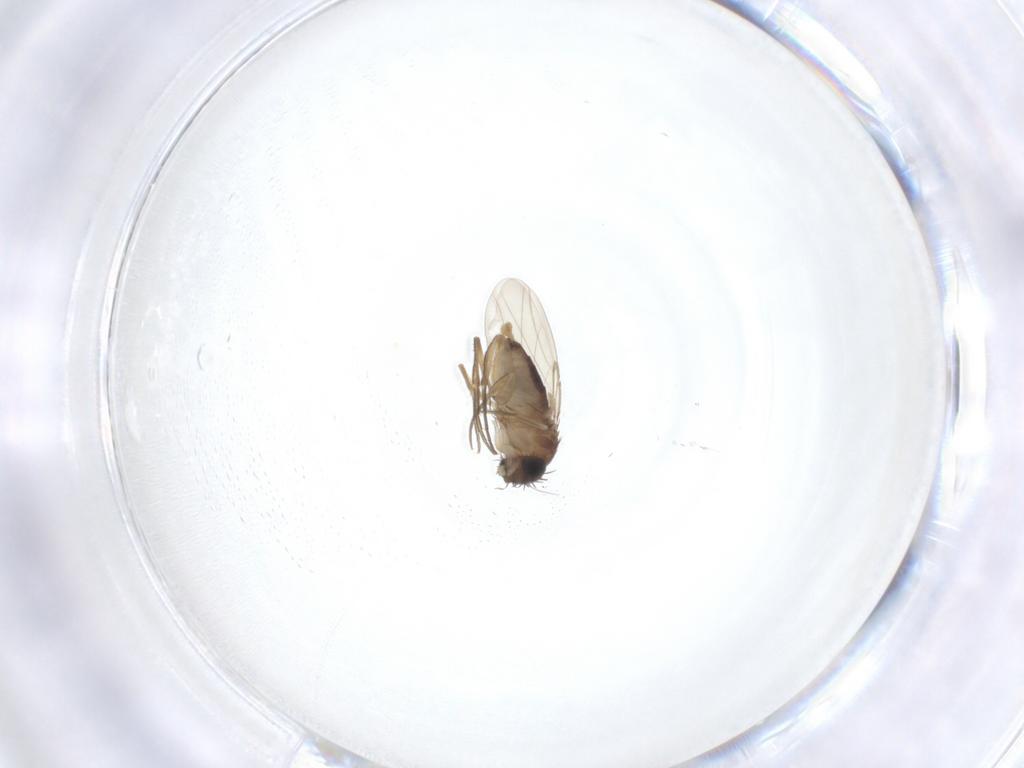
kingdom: Animalia
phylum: Arthropoda
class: Insecta
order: Diptera
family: Phoridae
